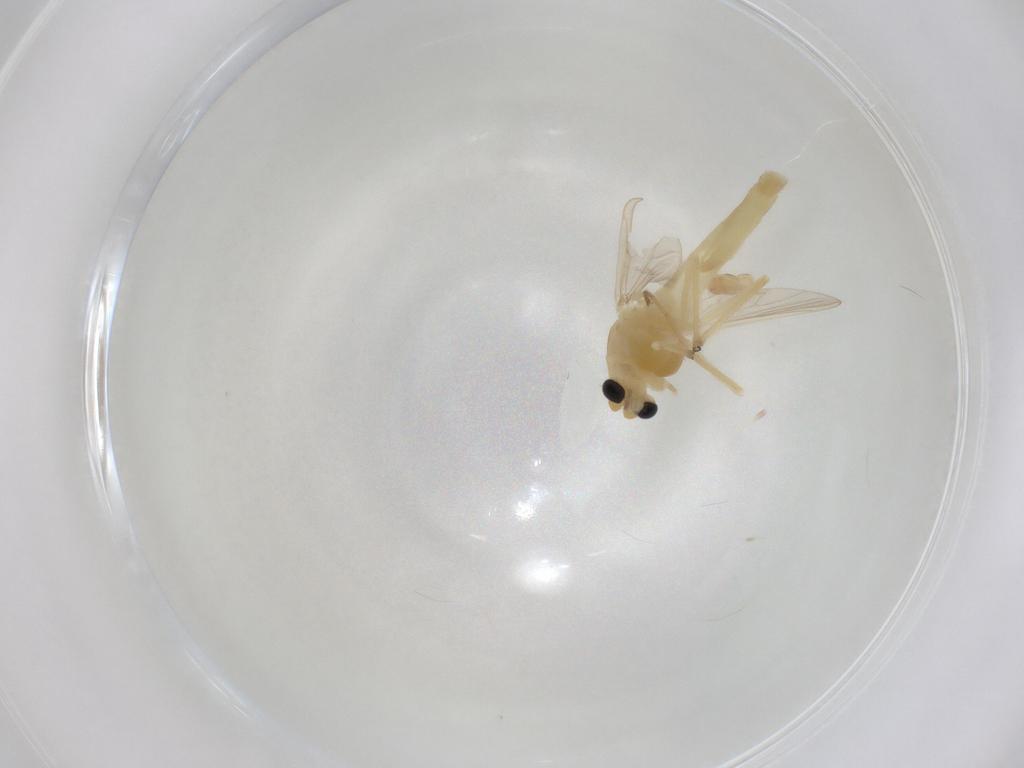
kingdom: Animalia
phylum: Arthropoda
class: Insecta
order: Diptera
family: Chironomidae
